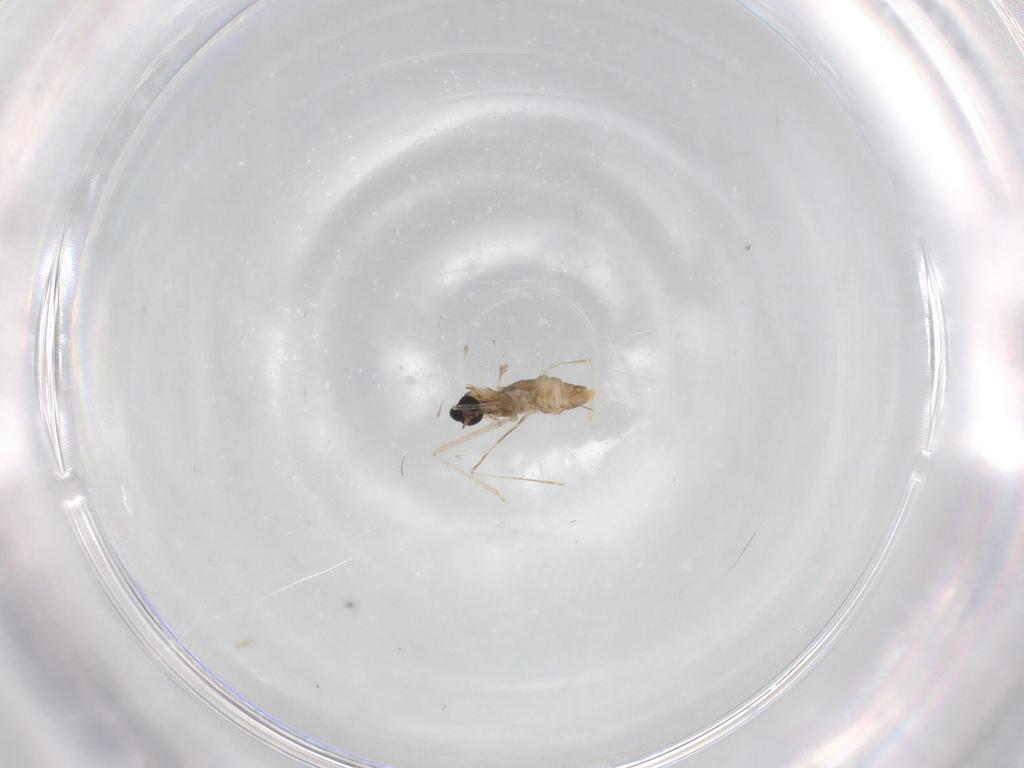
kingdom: Animalia
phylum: Arthropoda
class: Insecta
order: Diptera
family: Cecidomyiidae
